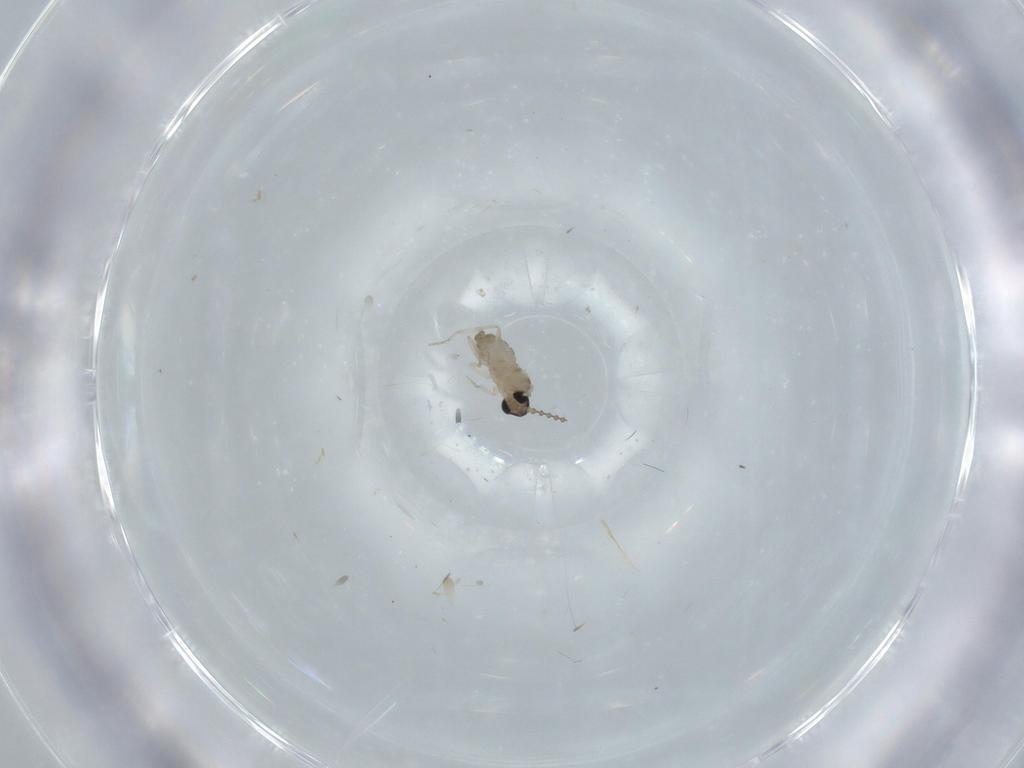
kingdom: Animalia
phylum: Arthropoda
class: Insecta
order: Diptera
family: Cecidomyiidae
